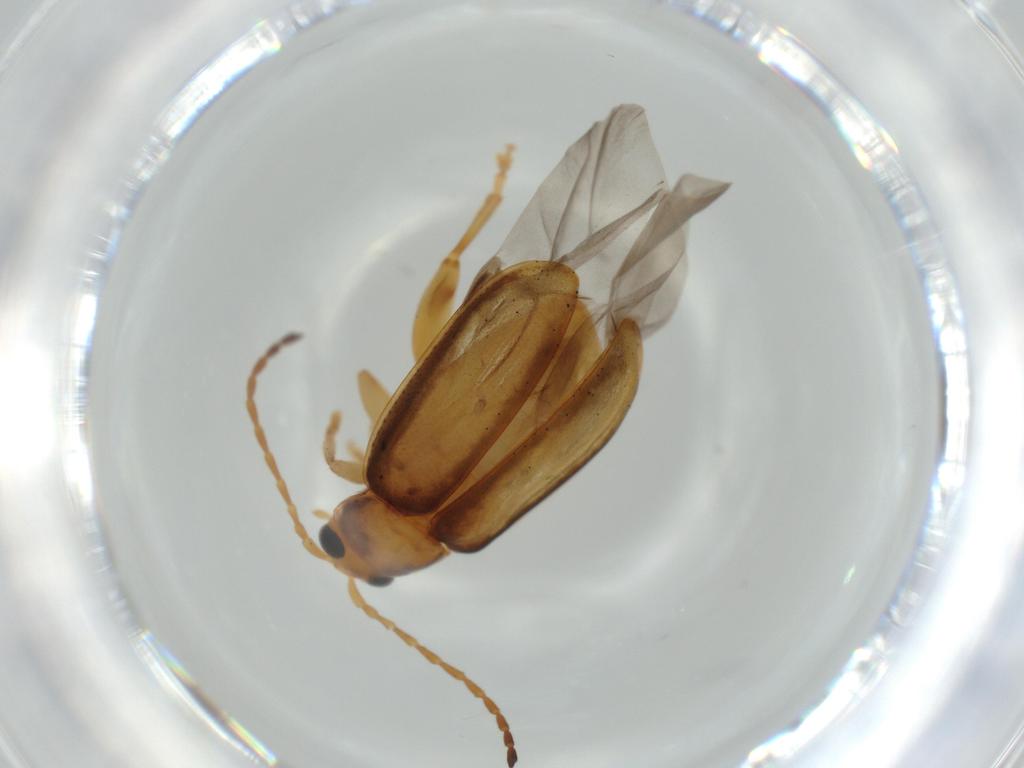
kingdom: Animalia
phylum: Arthropoda
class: Insecta
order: Coleoptera
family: Chrysomelidae
